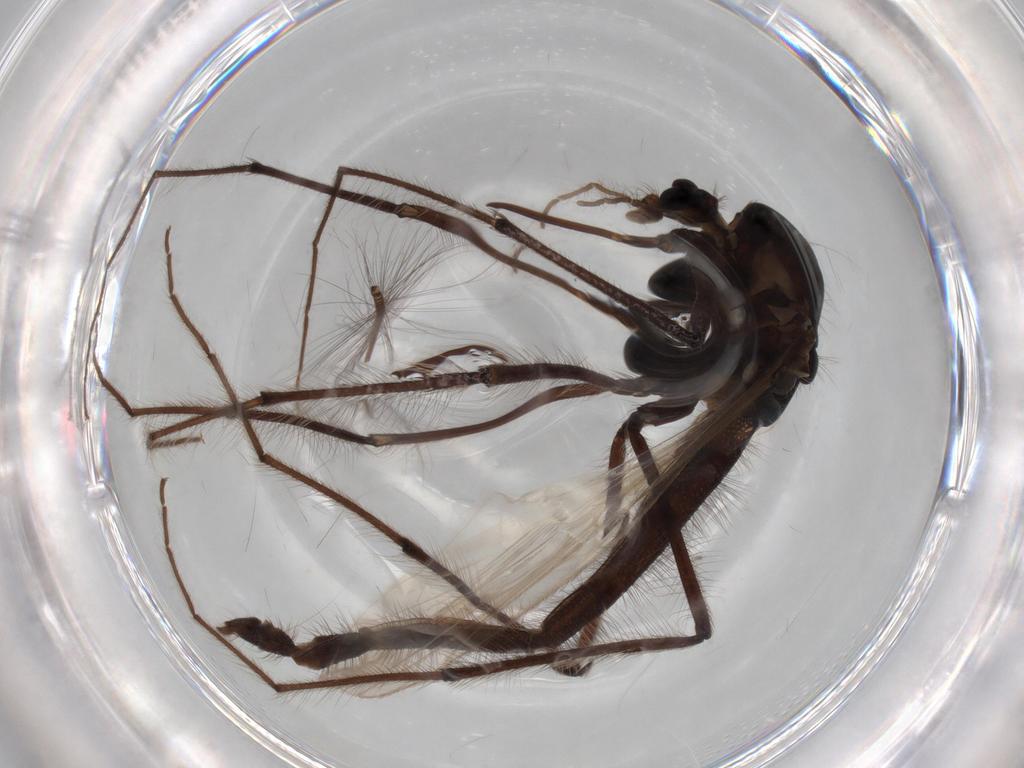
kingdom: Animalia
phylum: Arthropoda
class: Insecta
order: Diptera
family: Chironomidae
